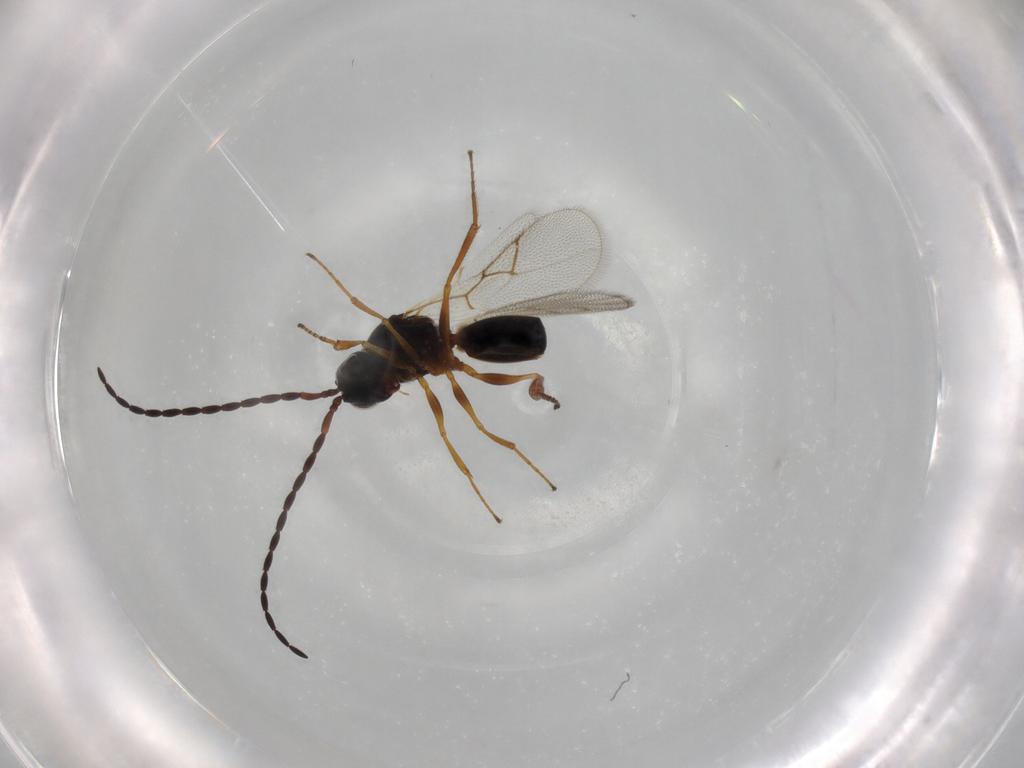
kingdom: Animalia
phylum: Arthropoda
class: Insecta
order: Hymenoptera
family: Figitidae
